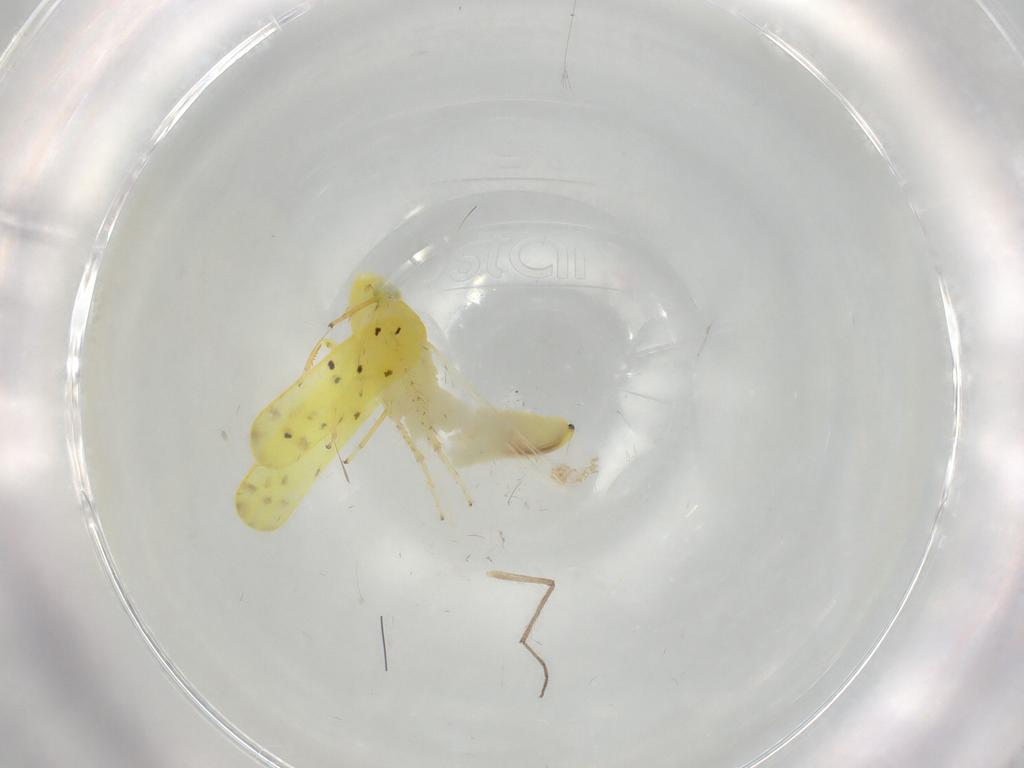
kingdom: Animalia
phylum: Arthropoda
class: Insecta
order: Hemiptera
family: Cicadellidae
